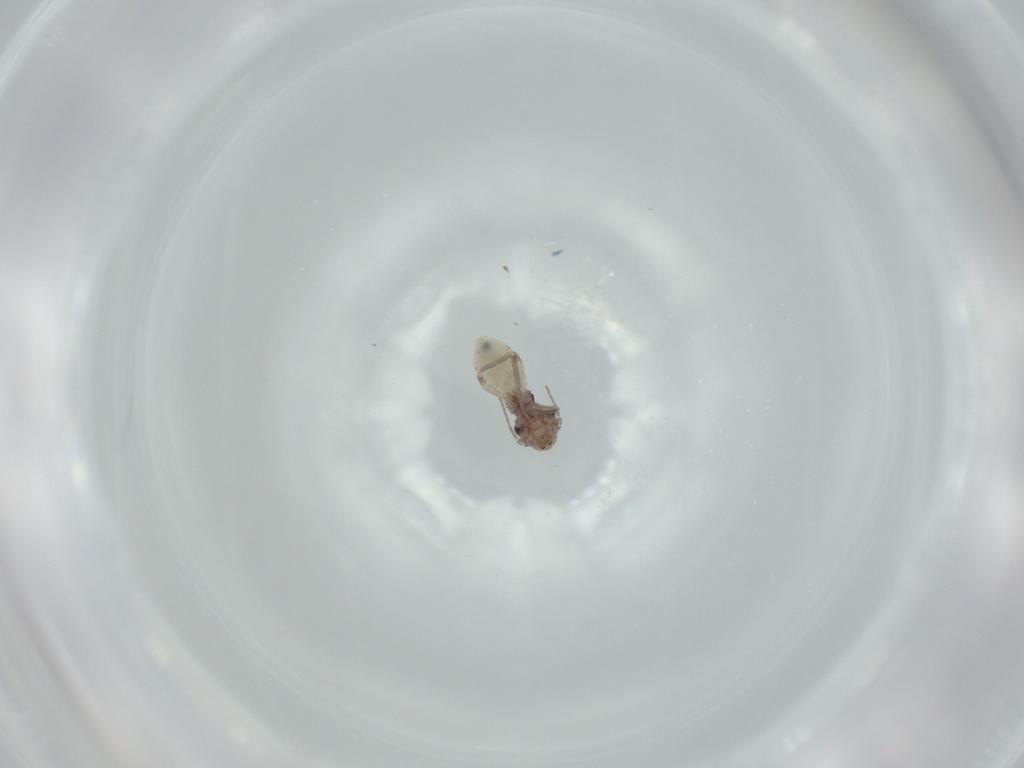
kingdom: Animalia
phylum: Arthropoda
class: Insecta
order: Psocodea
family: Lepidopsocidae
